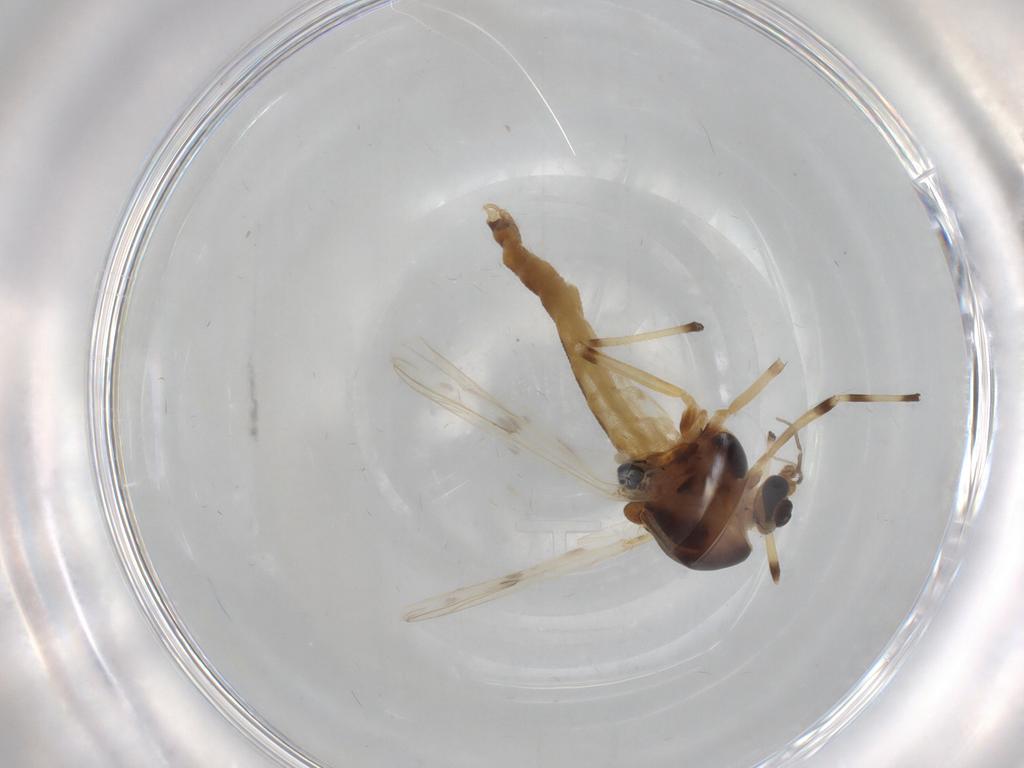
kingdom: Animalia
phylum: Arthropoda
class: Insecta
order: Diptera
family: Chironomidae
